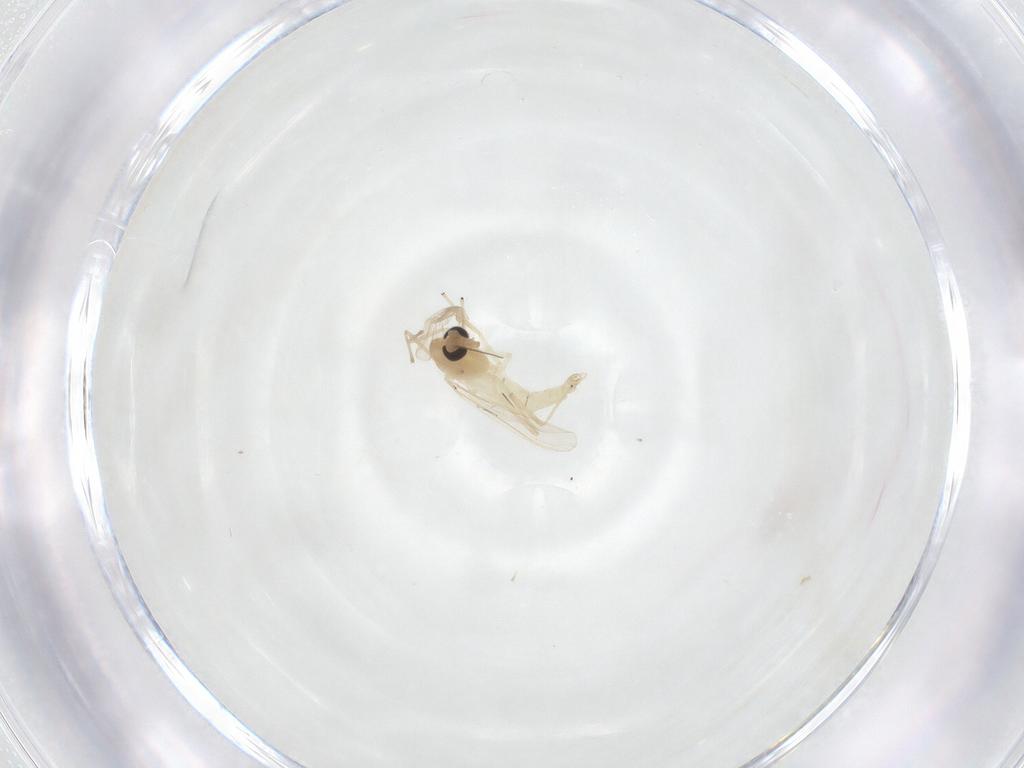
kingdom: Animalia
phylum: Arthropoda
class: Insecta
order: Diptera
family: Chironomidae
